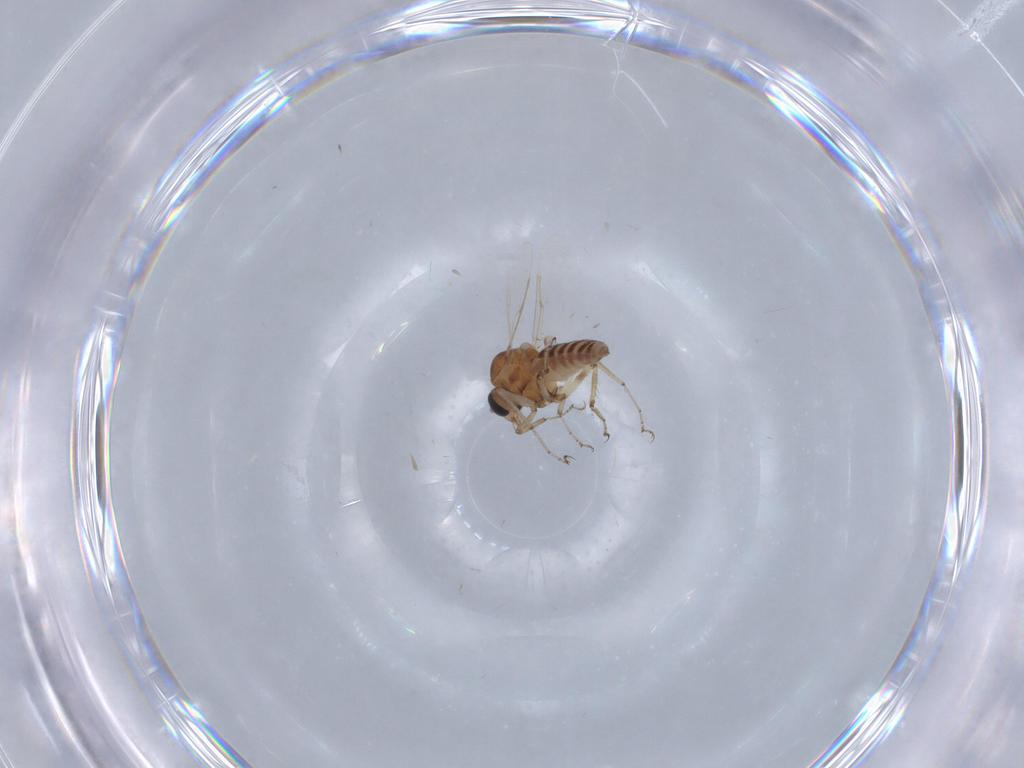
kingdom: Animalia
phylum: Arthropoda
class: Insecta
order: Diptera
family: Ceratopogonidae
